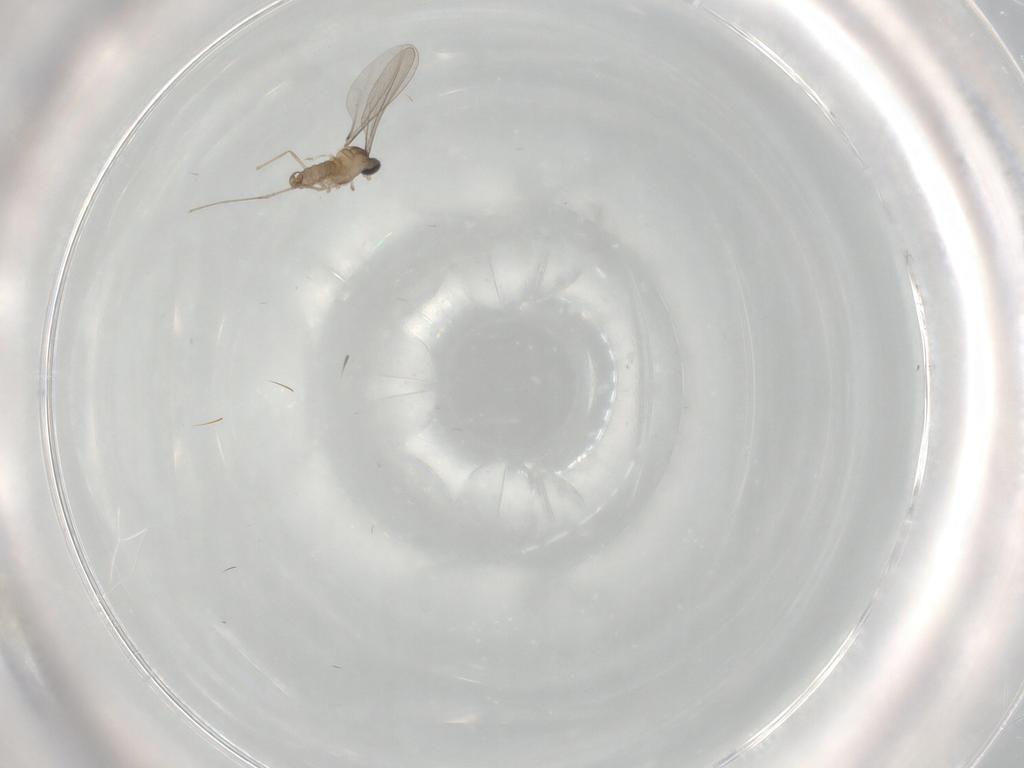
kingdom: Animalia
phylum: Arthropoda
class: Insecta
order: Diptera
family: Cecidomyiidae
